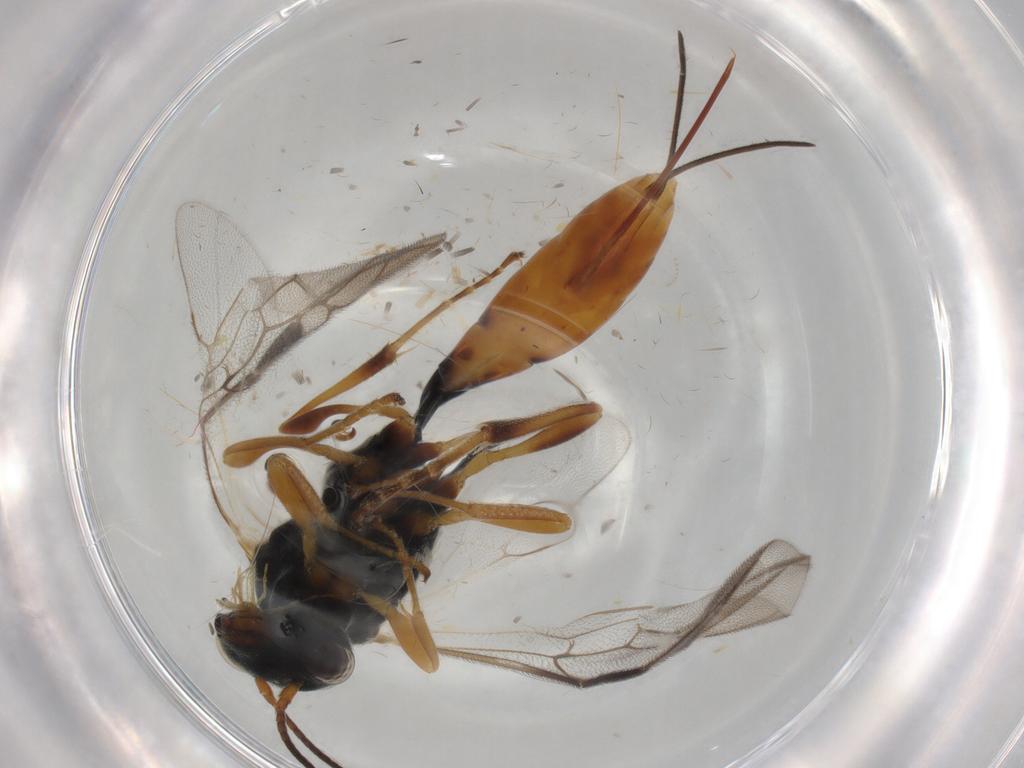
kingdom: Animalia
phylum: Arthropoda
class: Insecta
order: Hymenoptera
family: Ichneumonidae
